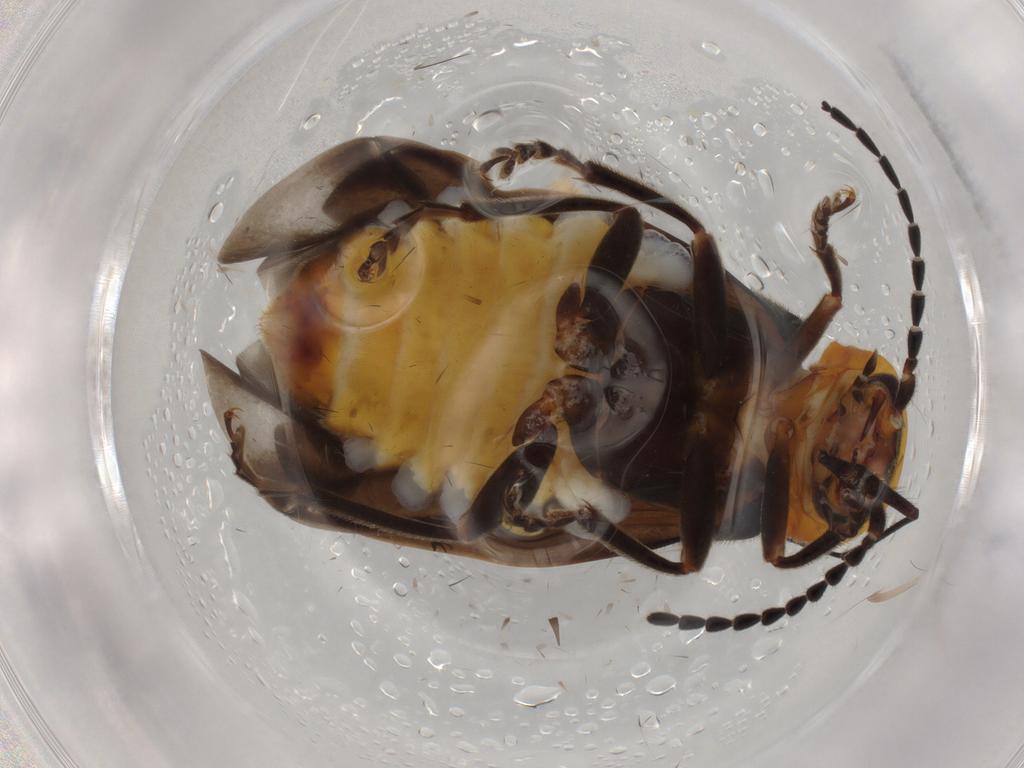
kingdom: Animalia
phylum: Arthropoda
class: Insecta
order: Coleoptera
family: Cantharidae
